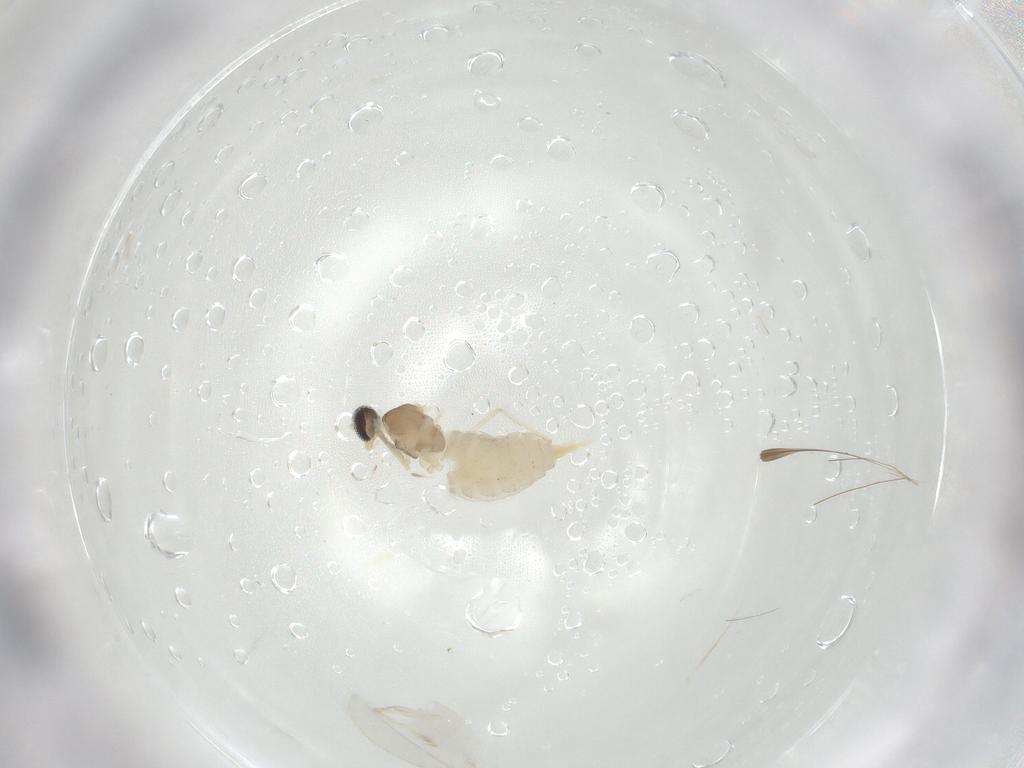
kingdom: Animalia
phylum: Arthropoda
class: Insecta
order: Diptera
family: Cecidomyiidae
